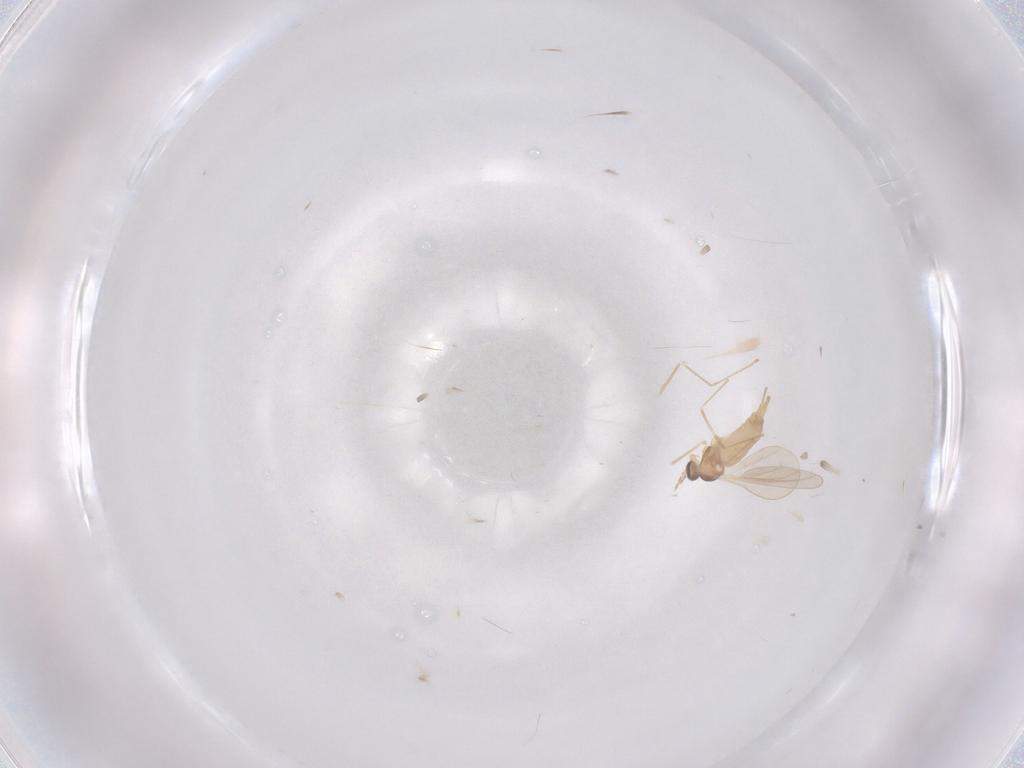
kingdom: Animalia
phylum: Arthropoda
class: Insecta
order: Diptera
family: Cecidomyiidae
